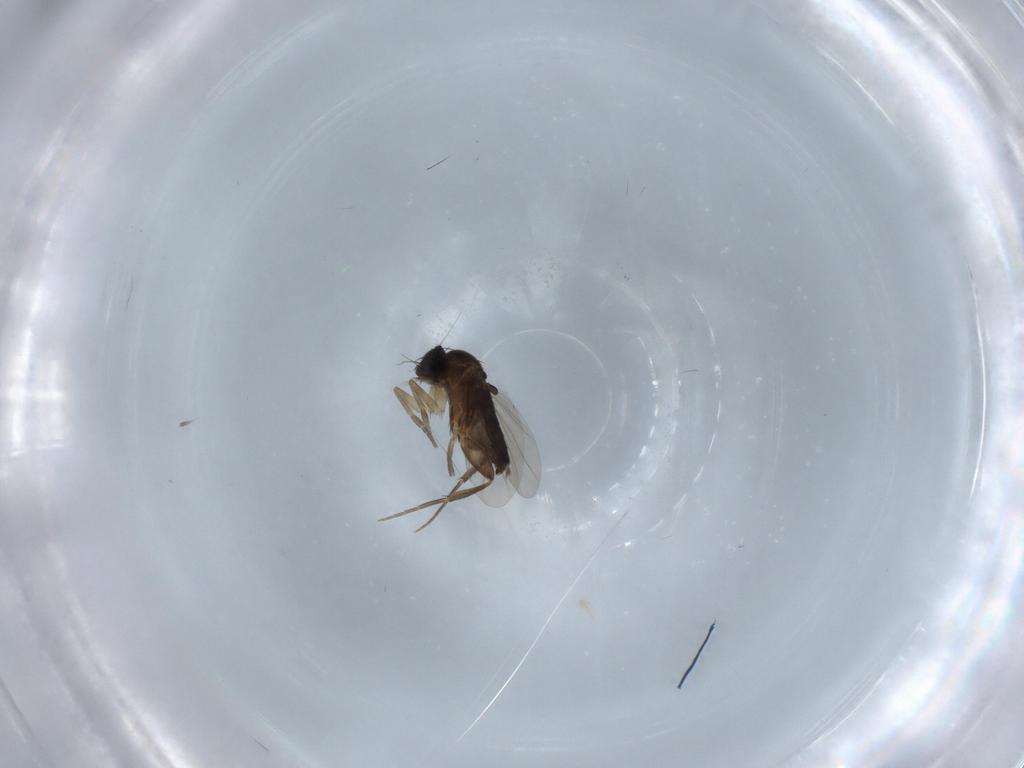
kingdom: Animalia
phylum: Arthropoda
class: Insecta
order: Diptera
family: Phoridae
